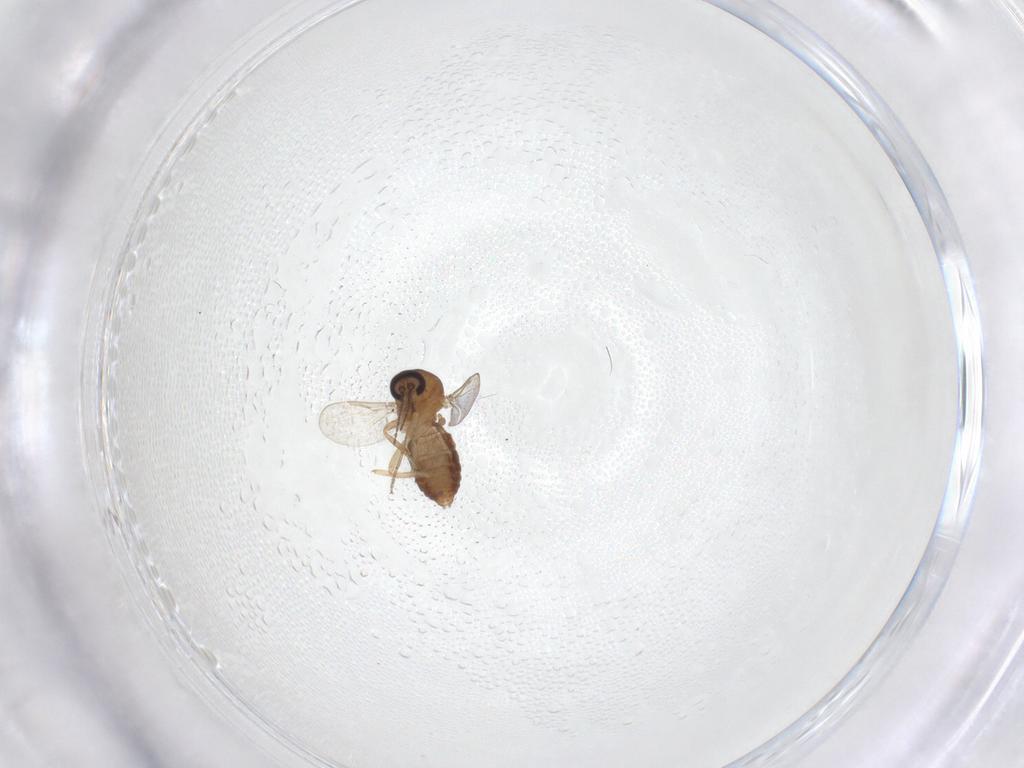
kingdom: Animalia
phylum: Arthropoda
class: Insecta
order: Diptera
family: Ceratopogonidae
